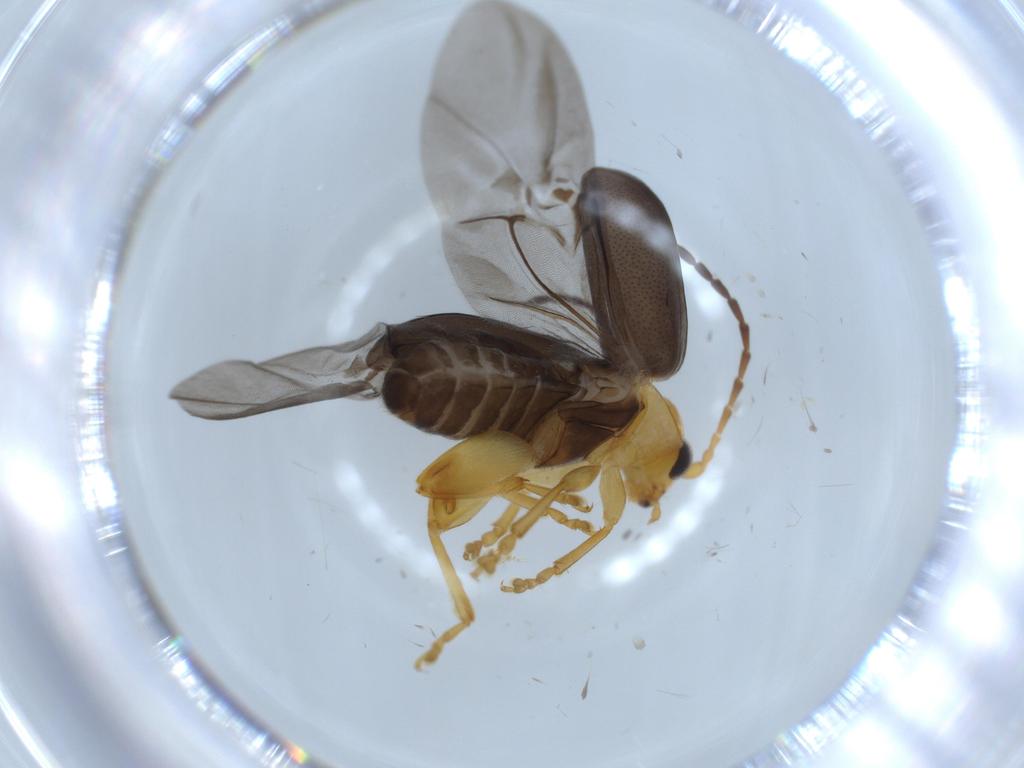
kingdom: Animalia
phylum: Arthropoda
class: Insecta
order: Coleoptera
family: Chrysomelidae
